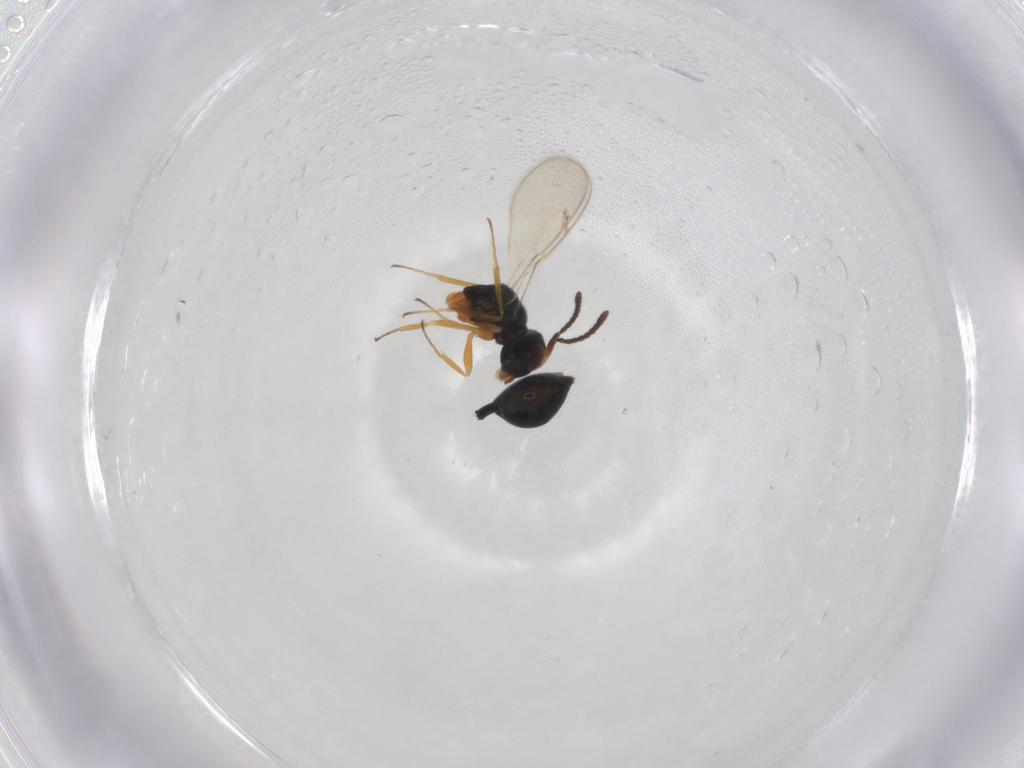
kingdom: Animalia
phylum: Arthropoda
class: Insecta
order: Hymenoptera
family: Pteromalidae
